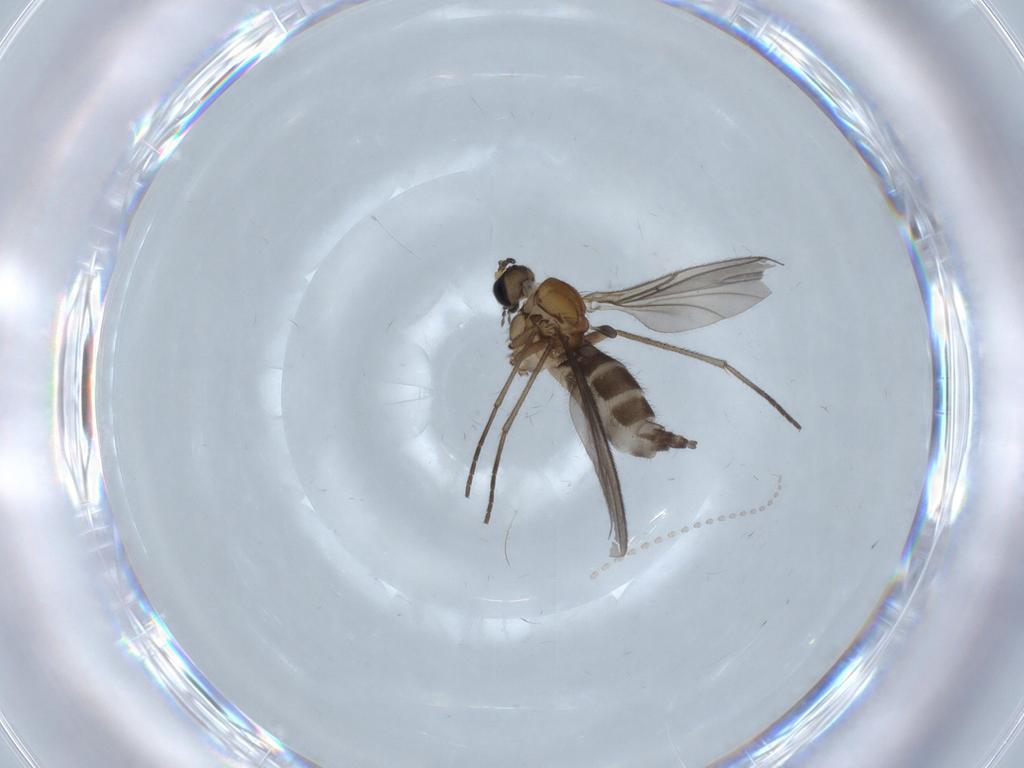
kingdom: Animalia
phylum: Arthropoda
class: Insecta
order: Diptera
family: Sciaridae
